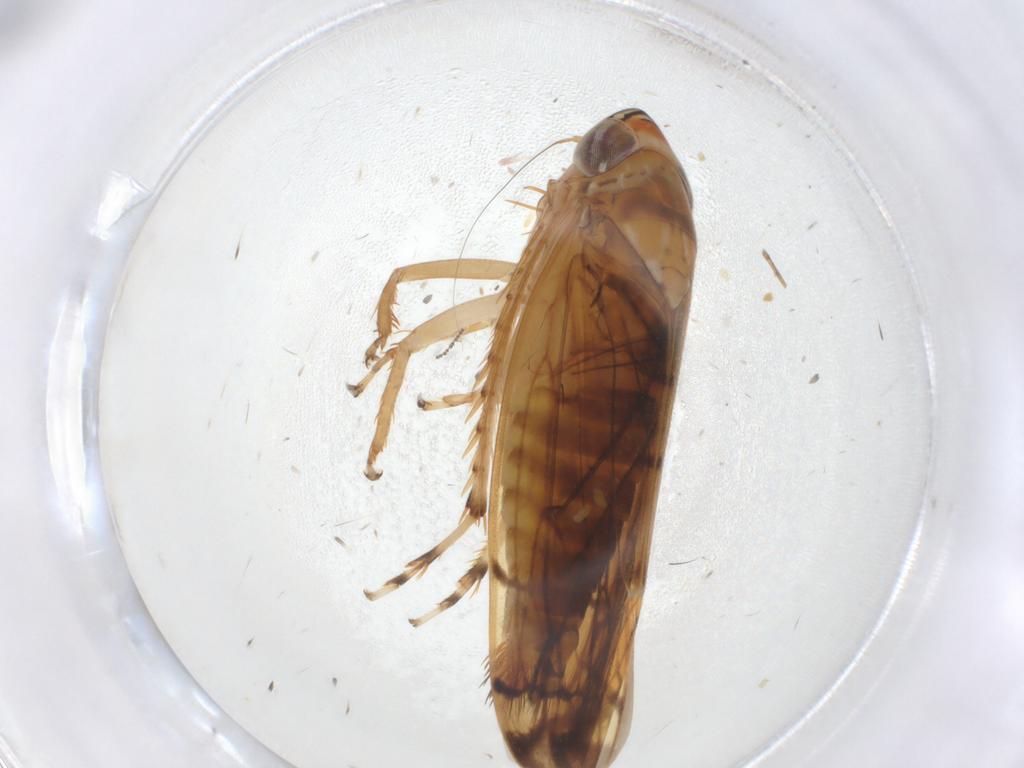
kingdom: Animalia
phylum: Arthropoda
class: Insecta
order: Hemiptera
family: Cicadellidae
